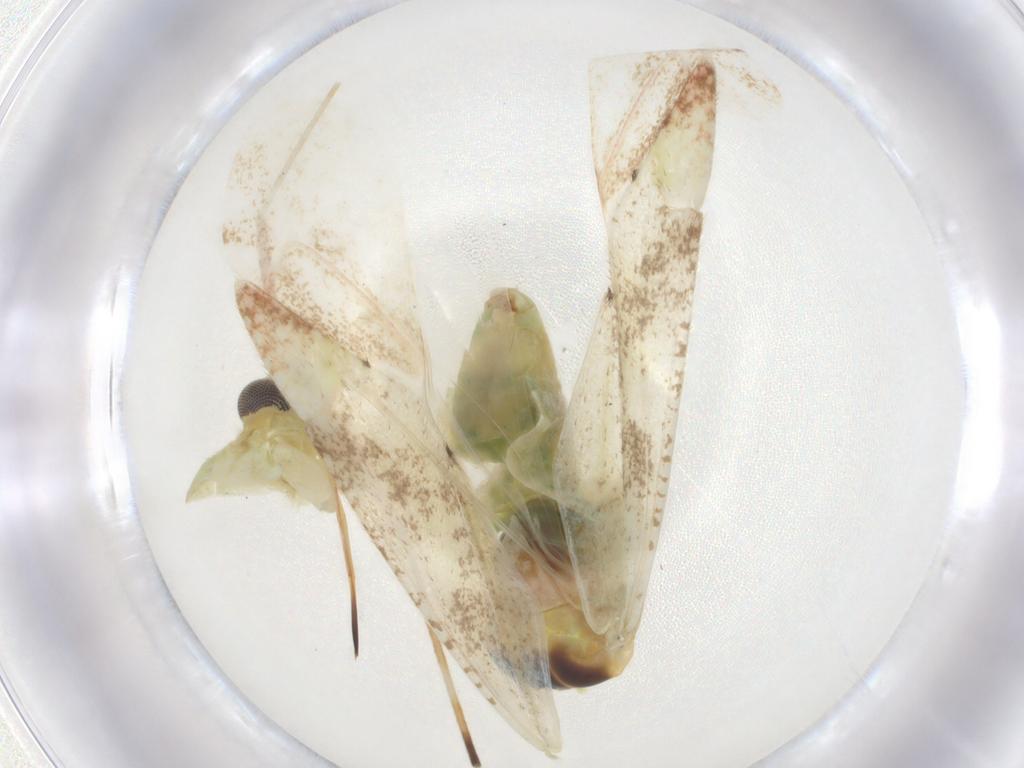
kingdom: Animalia
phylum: Arthropoda
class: Insecta
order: Hemiptera
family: Miridae
